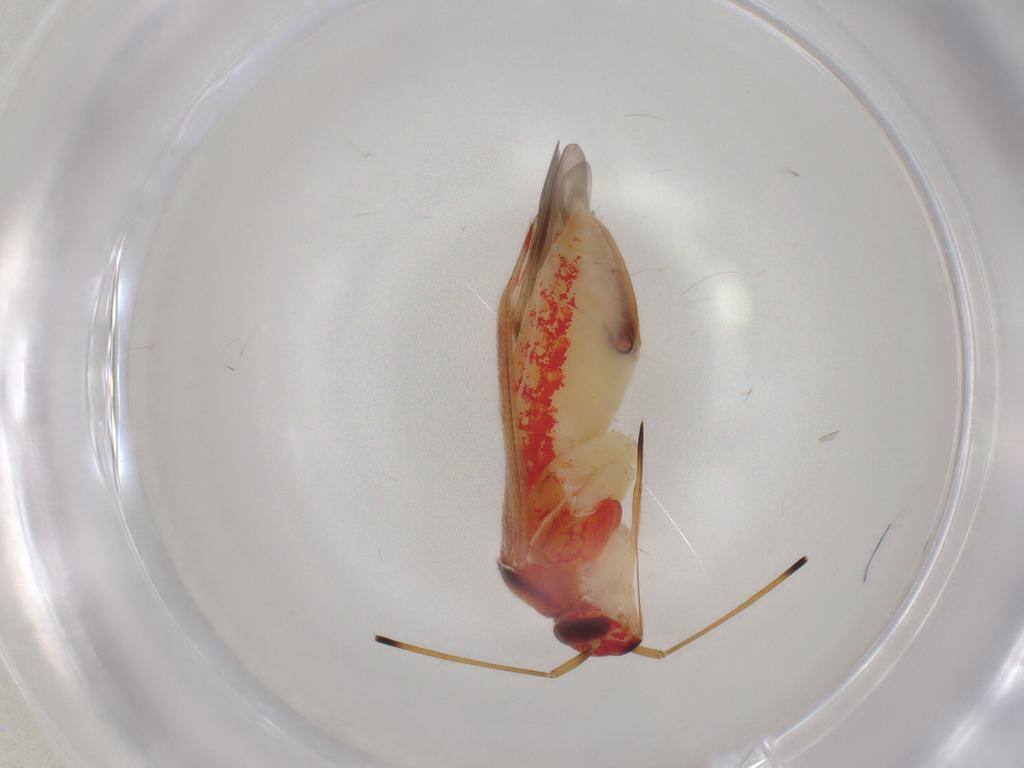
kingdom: Animalia
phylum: Arthropoda
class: Insecta
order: Hemiptera
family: Miridae
